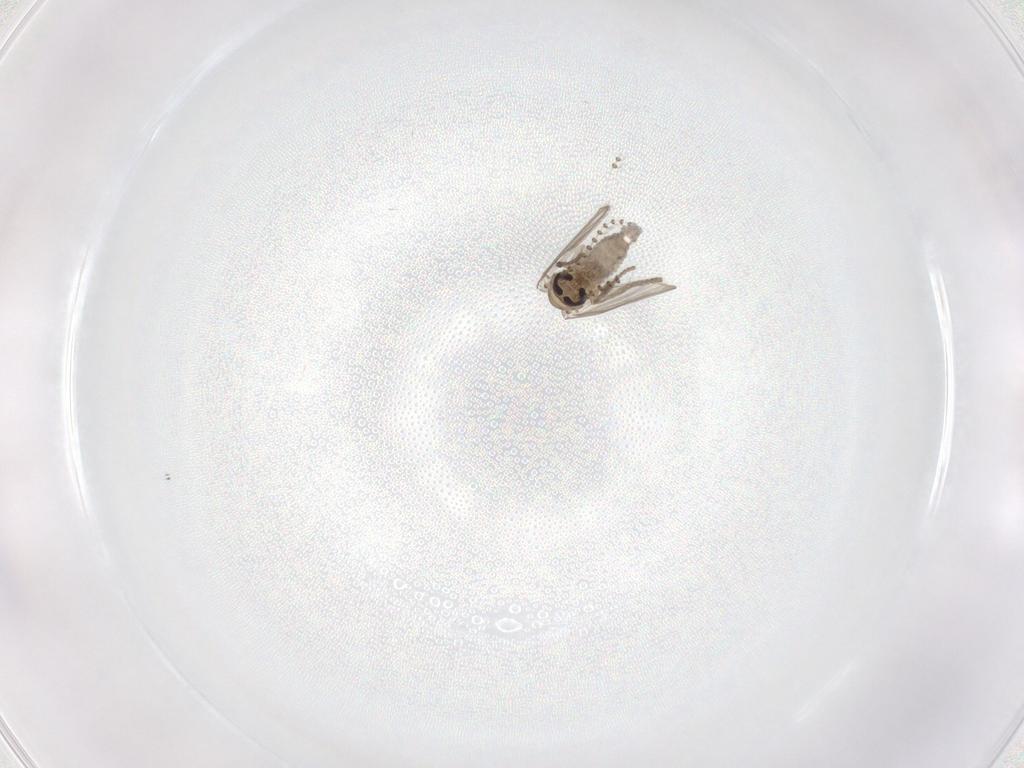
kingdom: Animalia
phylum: Arthropoda
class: Insecta
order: Diptera
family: Psychodidae
